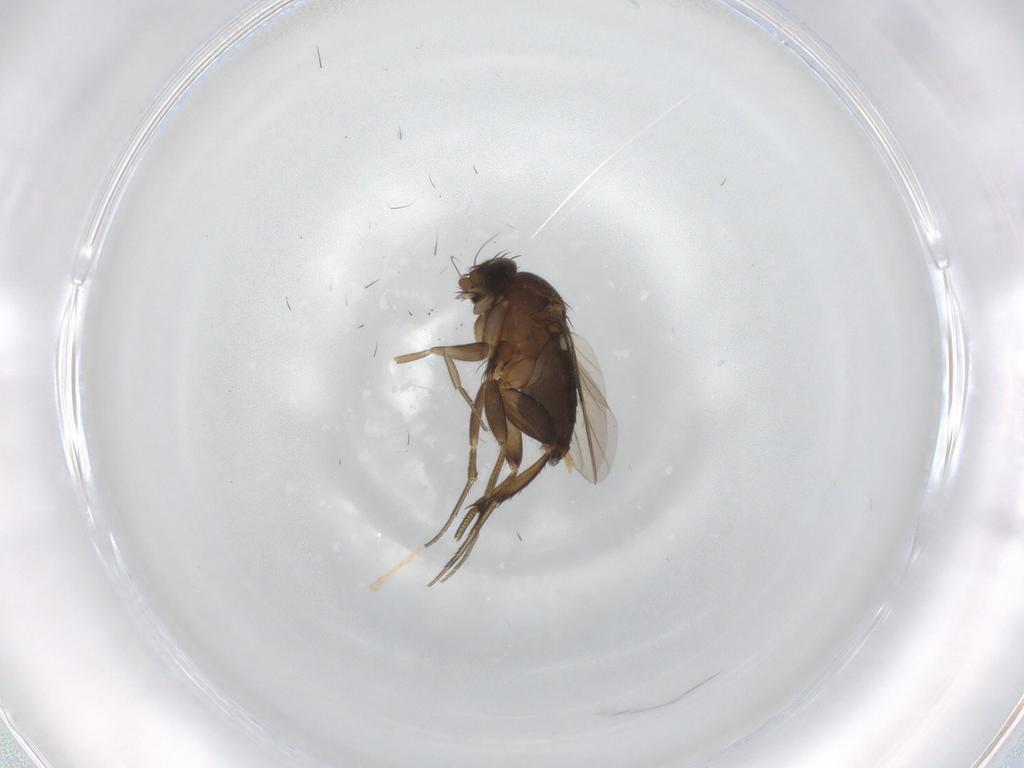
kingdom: Animalia
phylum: Arthropoda
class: Insecta
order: Diptera
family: Phoridae
